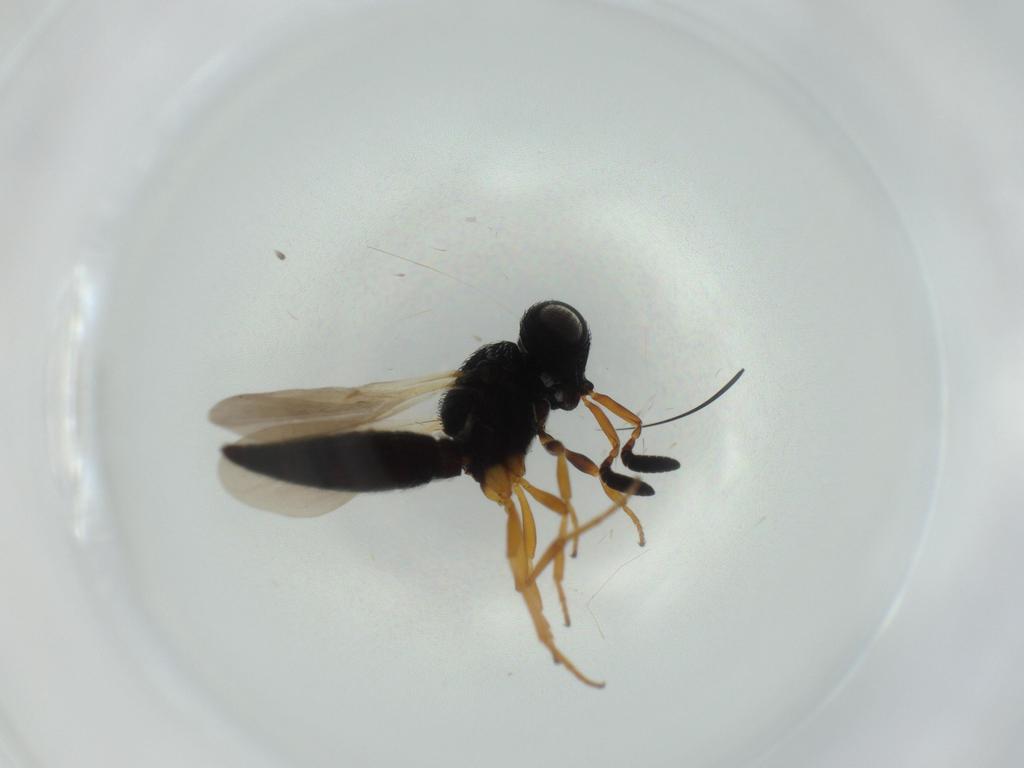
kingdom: Animalia
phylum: Arthropoda
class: Insecta
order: Hymenoptera
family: Scelionidae
